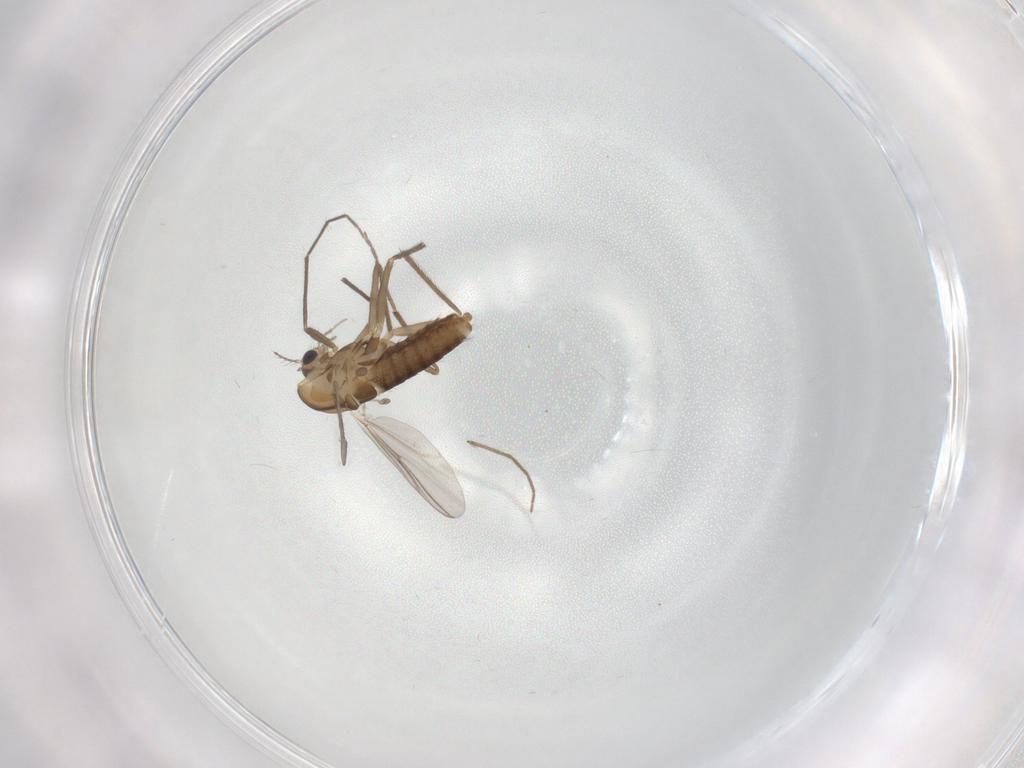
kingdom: Animalia
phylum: Arthropoda
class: Insecta
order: Diptera
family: Chironomidae
